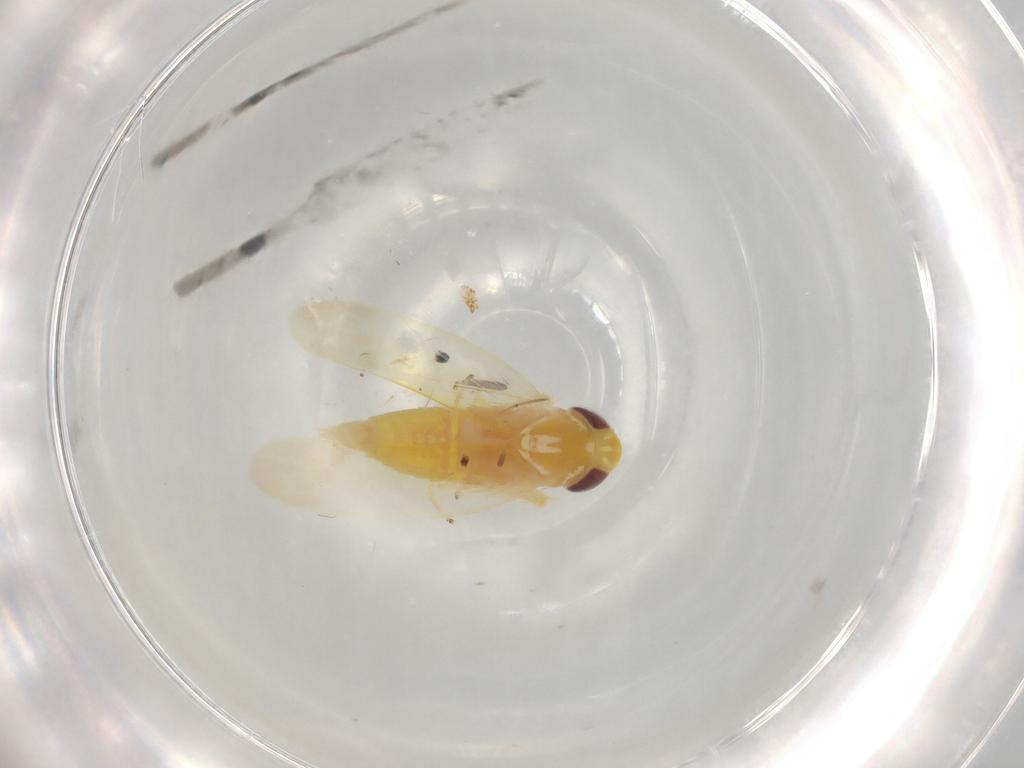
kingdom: Animalia
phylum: Arthropoda
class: Insecta
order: Hemiptera
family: Cicadellidae
